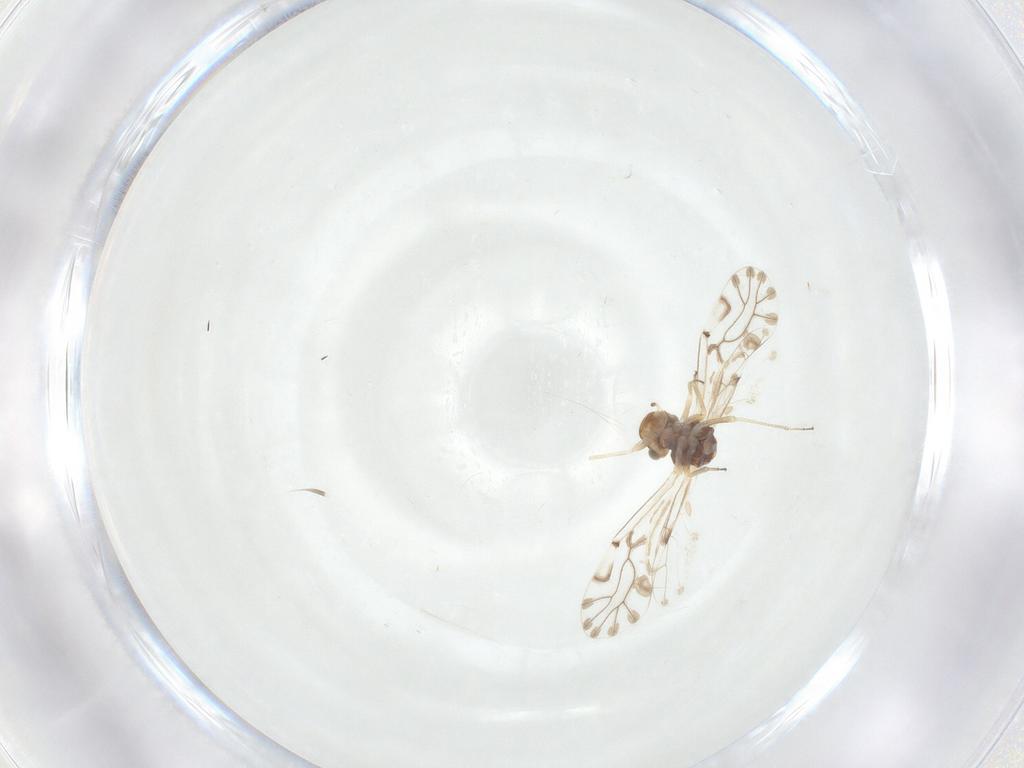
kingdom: Animalia
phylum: Arthropoda
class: Insecta
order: Psocodea
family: Lachesillidae
